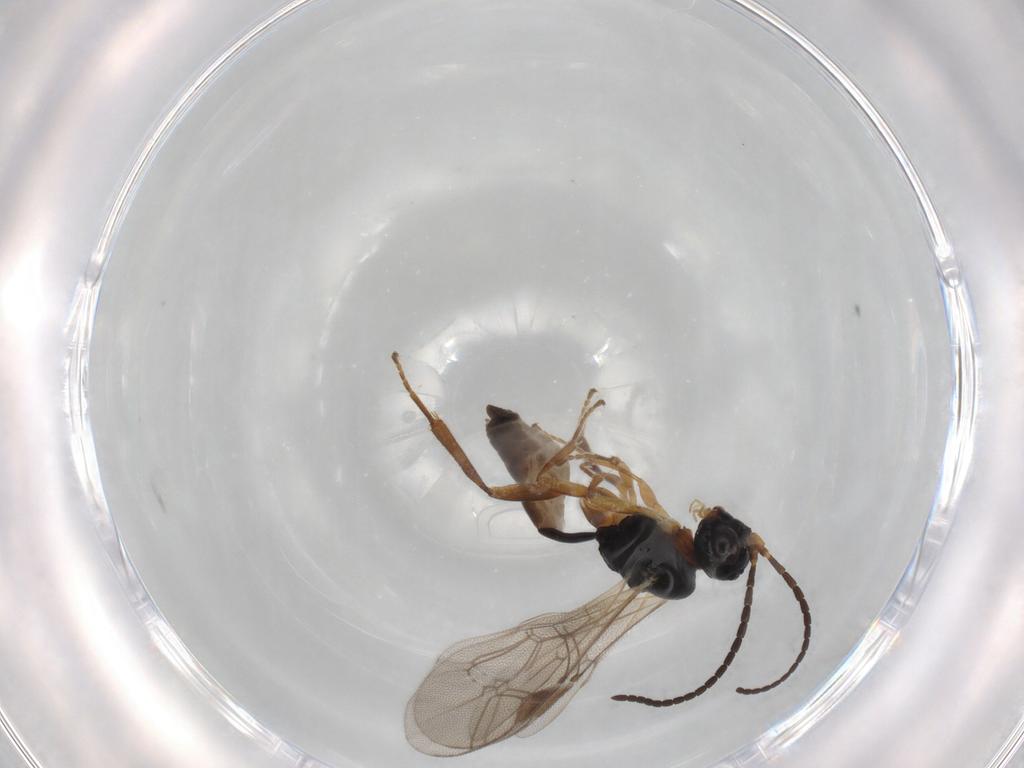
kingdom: Animalia
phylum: Arthropoda
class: Insecta
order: Hymenoptera
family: Ichneumonidae
